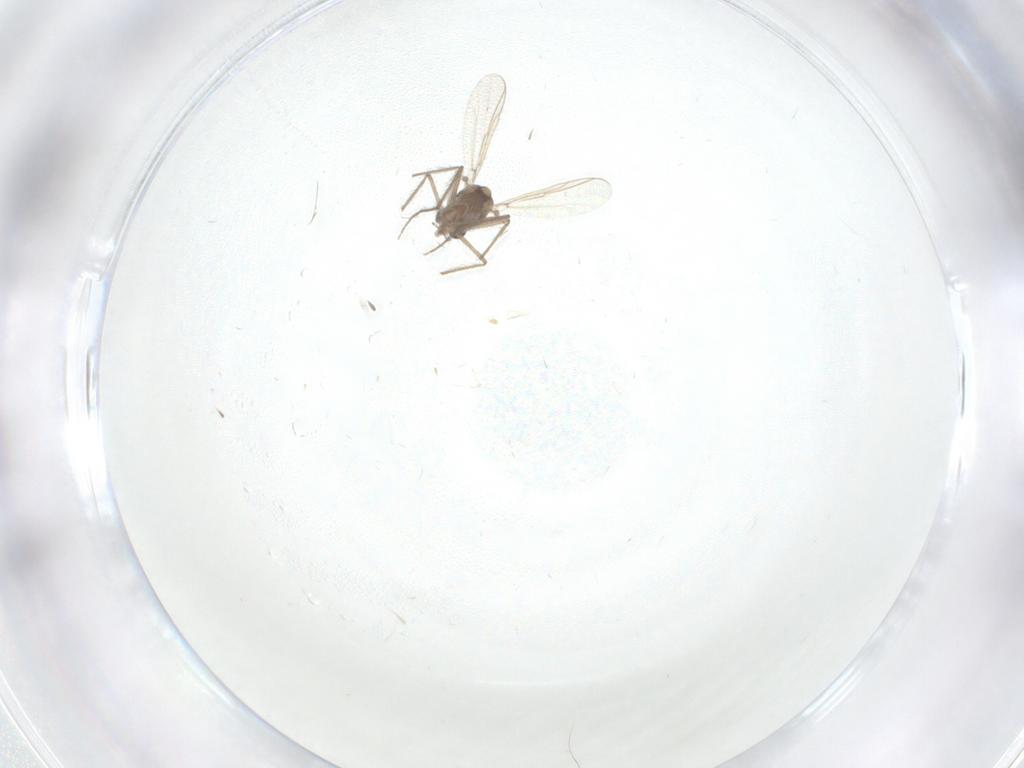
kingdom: Animalia
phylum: Arthropoda
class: Insecta
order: Diptera
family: Chironomidae
